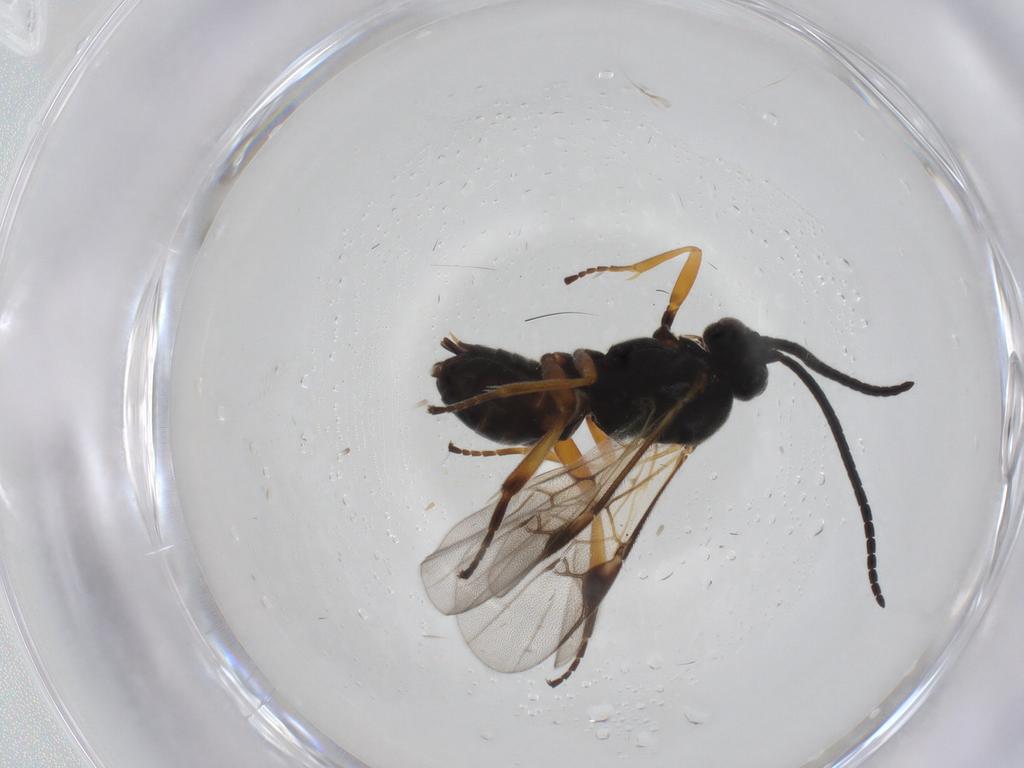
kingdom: Animalia
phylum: Arthropoda
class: Insecta
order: Hymenoptera
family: Braconidae
